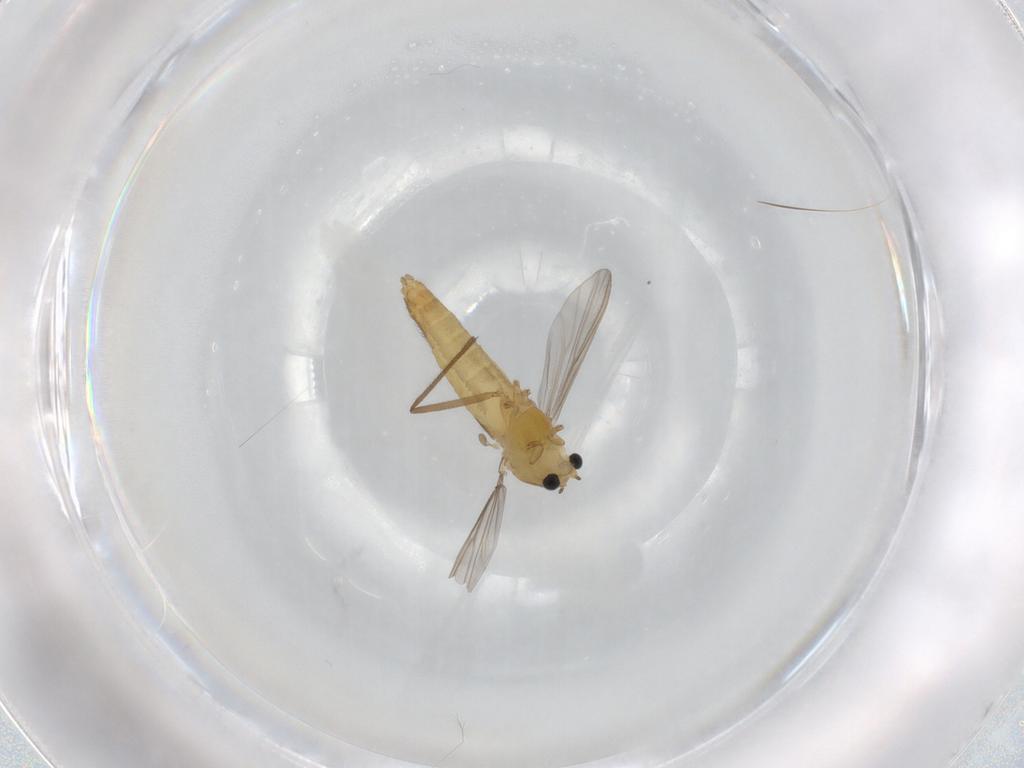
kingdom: Animalia
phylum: Arthropoda
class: Insecta
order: Diptera
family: Chironomidae
